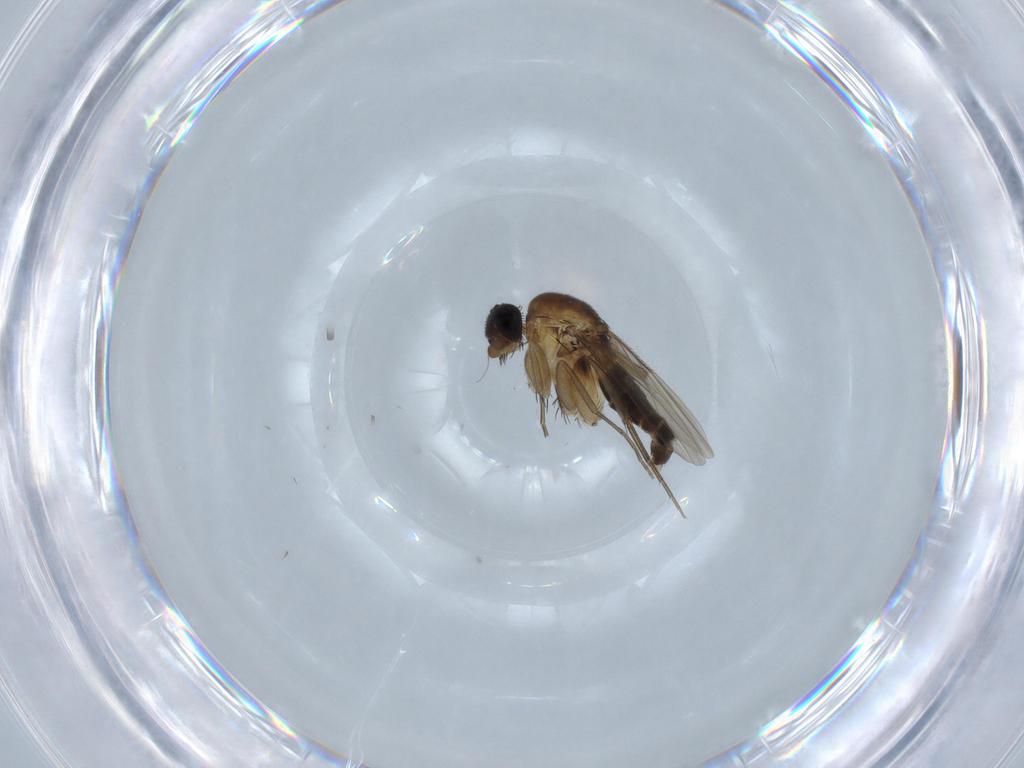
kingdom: Animalia
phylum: Arthropoda
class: Insecta
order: Diptera
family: Phoridae
